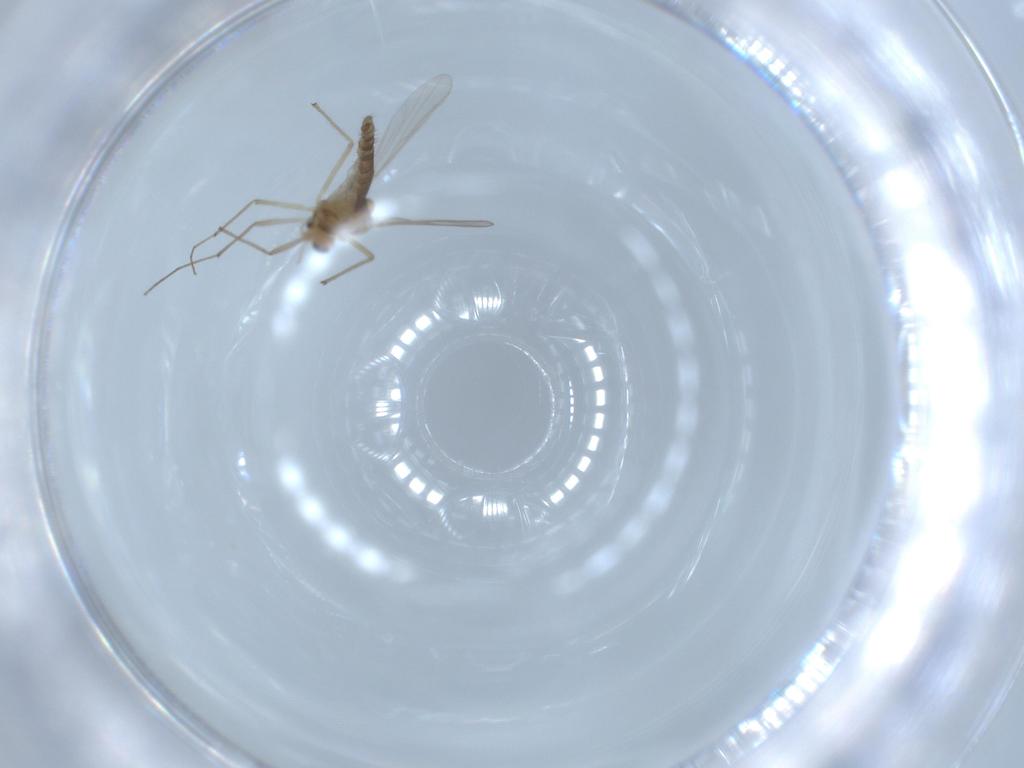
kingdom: Animalia
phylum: Arthropoda
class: Insecta
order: Diptera
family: Chironomidae
